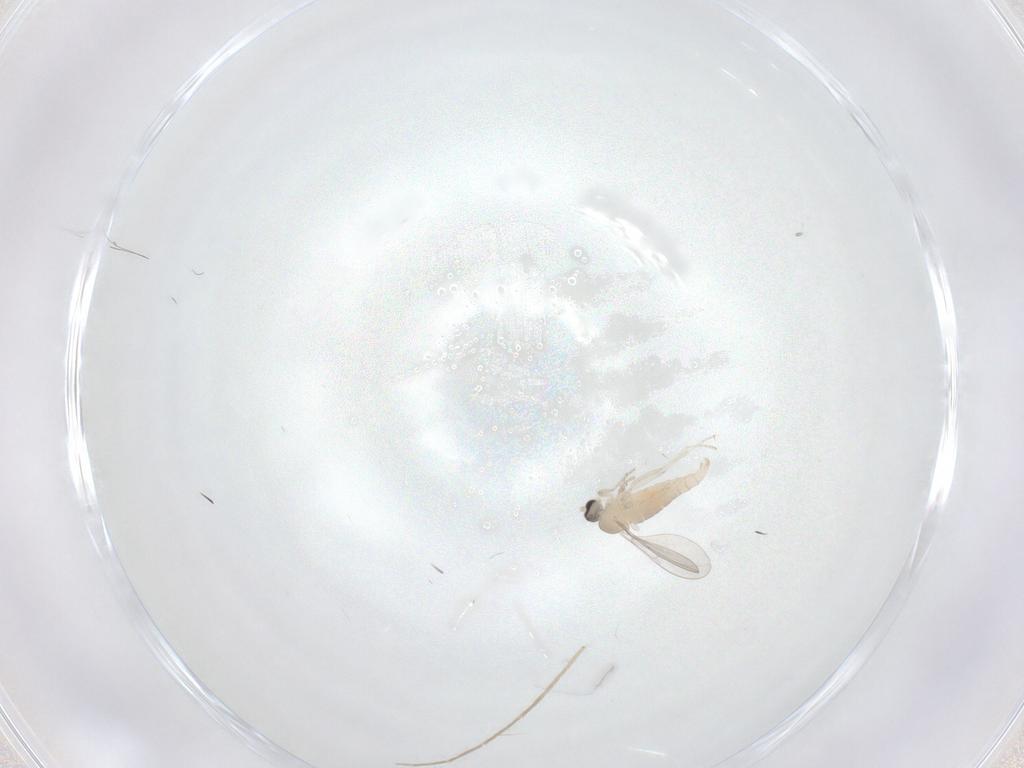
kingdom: Animalia
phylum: Arthropoda
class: Insecta
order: Diptera
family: Cecidomyiidae
